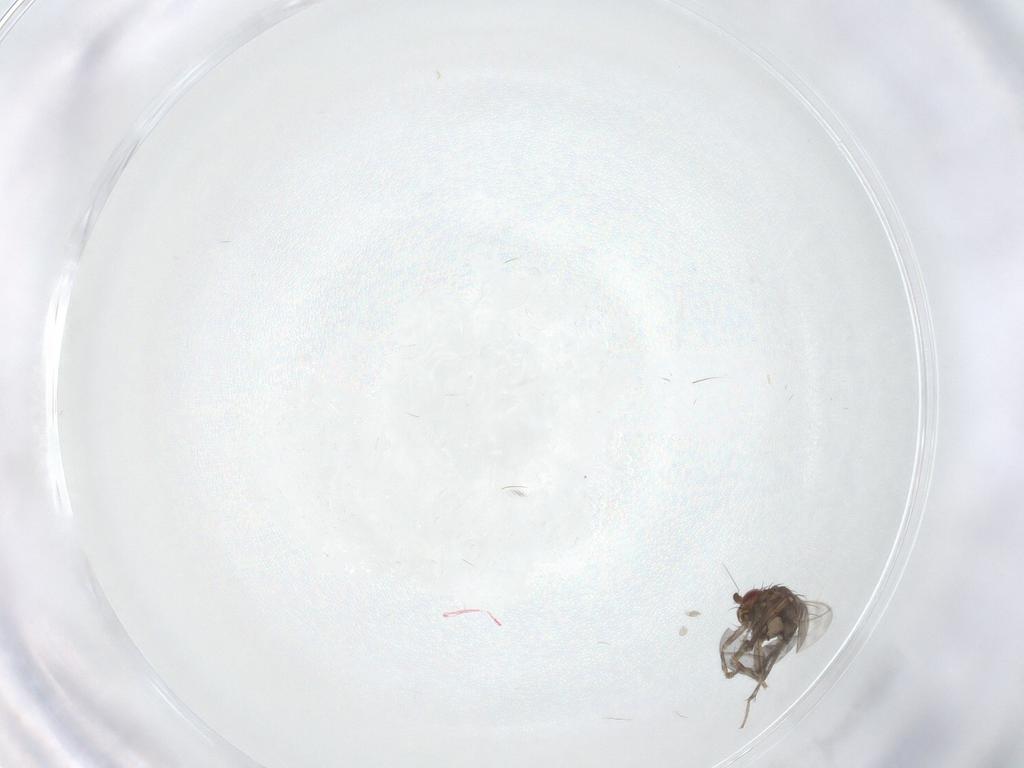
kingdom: Animalia
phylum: Arthropoda
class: Insecta
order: Diptera
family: Sphaeroceridae
